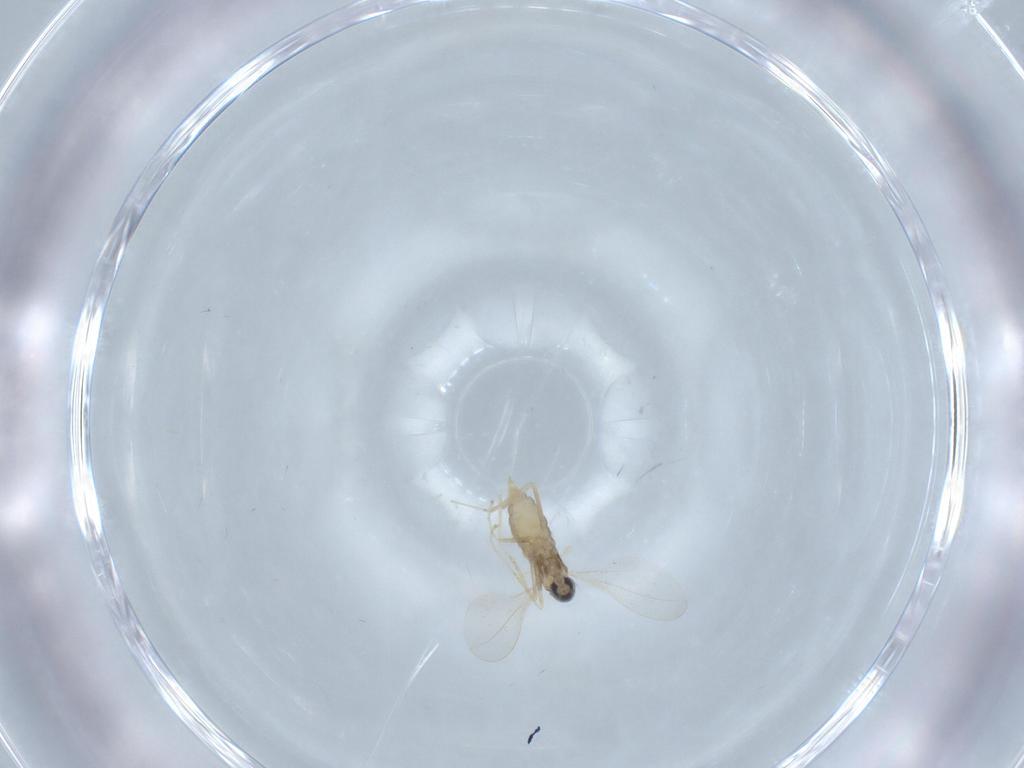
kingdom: Animalia
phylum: Arthropoda
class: Insecta
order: Diptera
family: Cecidomyiidae
